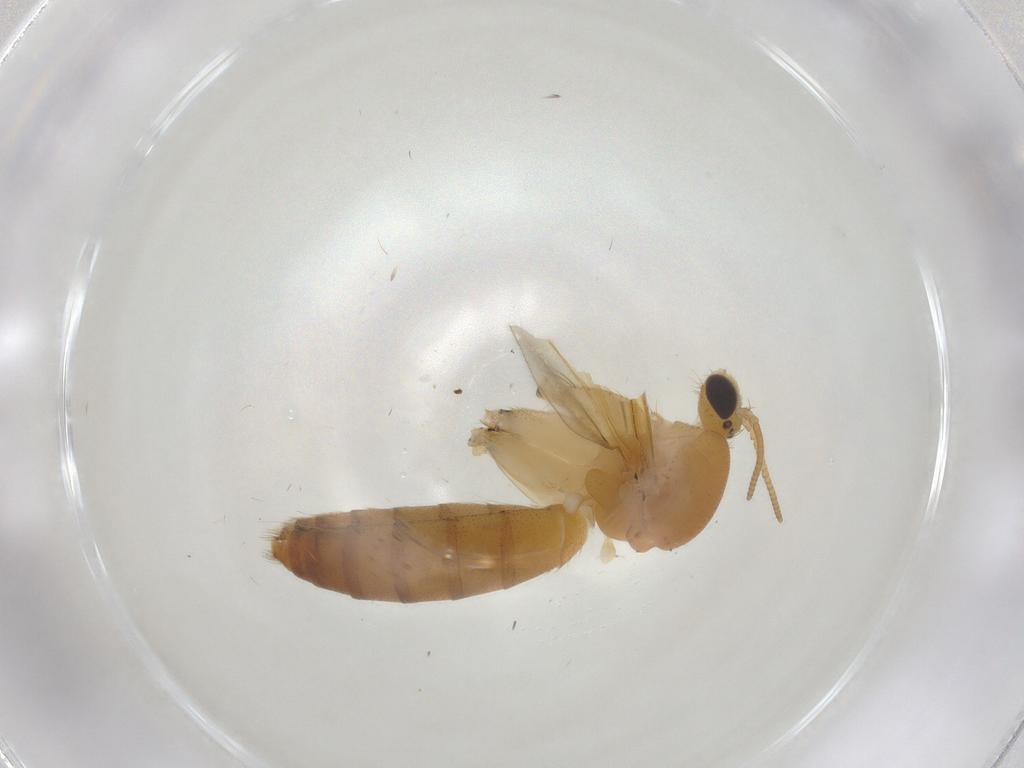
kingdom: Animalia
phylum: Arthropoda
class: Insecta
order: Diptera
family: Mycetophilidae
